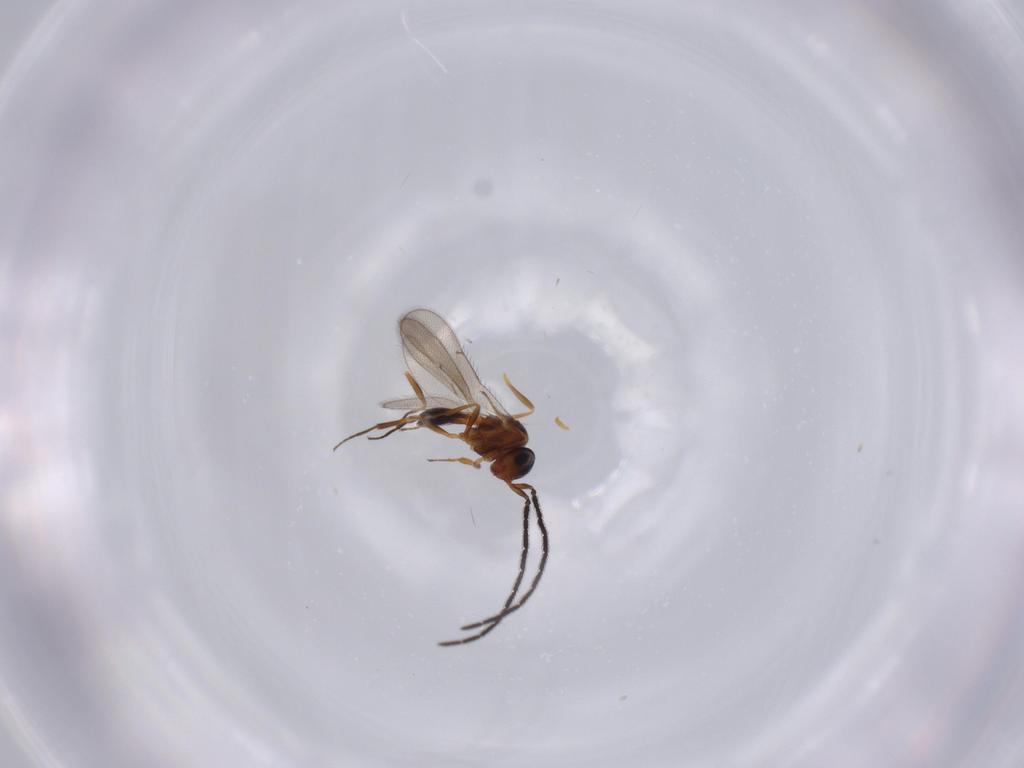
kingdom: Animalia
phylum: Arthropoda
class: Insecta
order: Hymenoptera
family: Scelionidae
